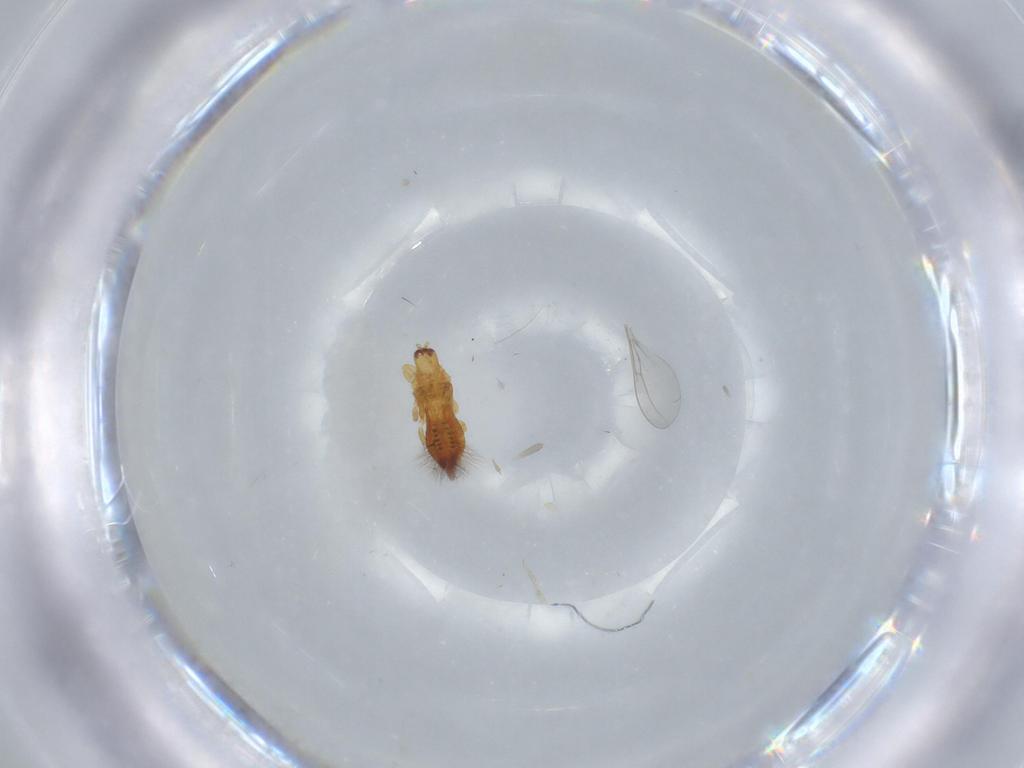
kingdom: Animalia
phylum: Arthropoda
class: Insecta
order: Thysanoptera
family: Phlaeothripidae
